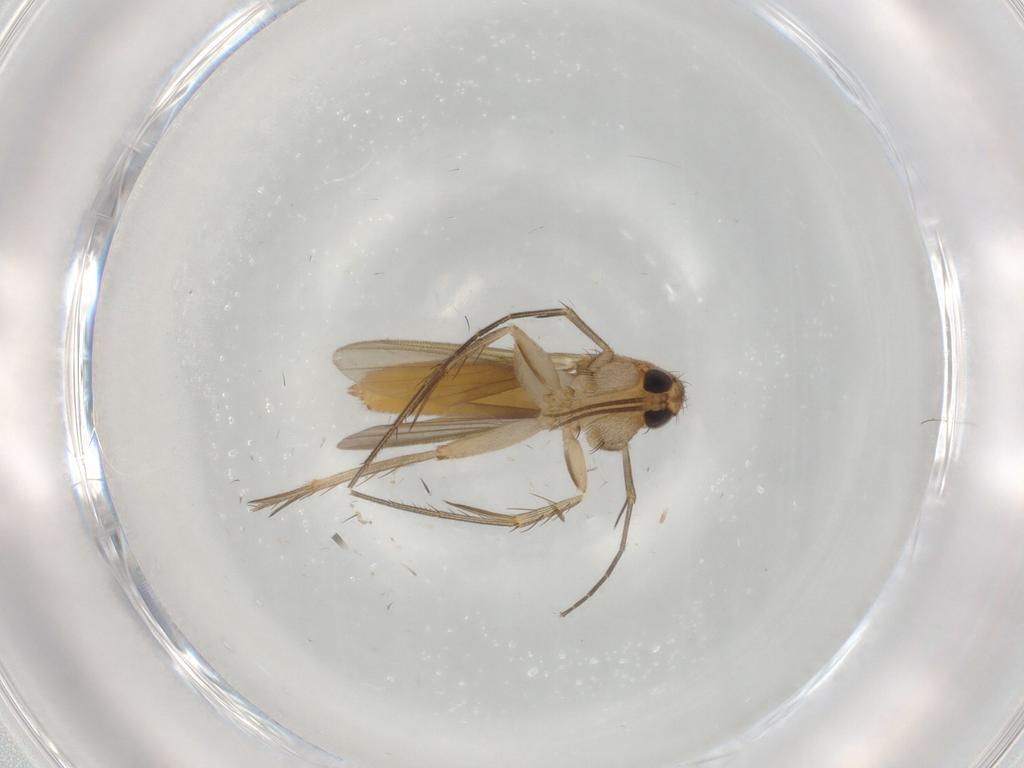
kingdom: Animalia
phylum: Arthropoda
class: Insecta
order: Diptera
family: Mycetophilidae
